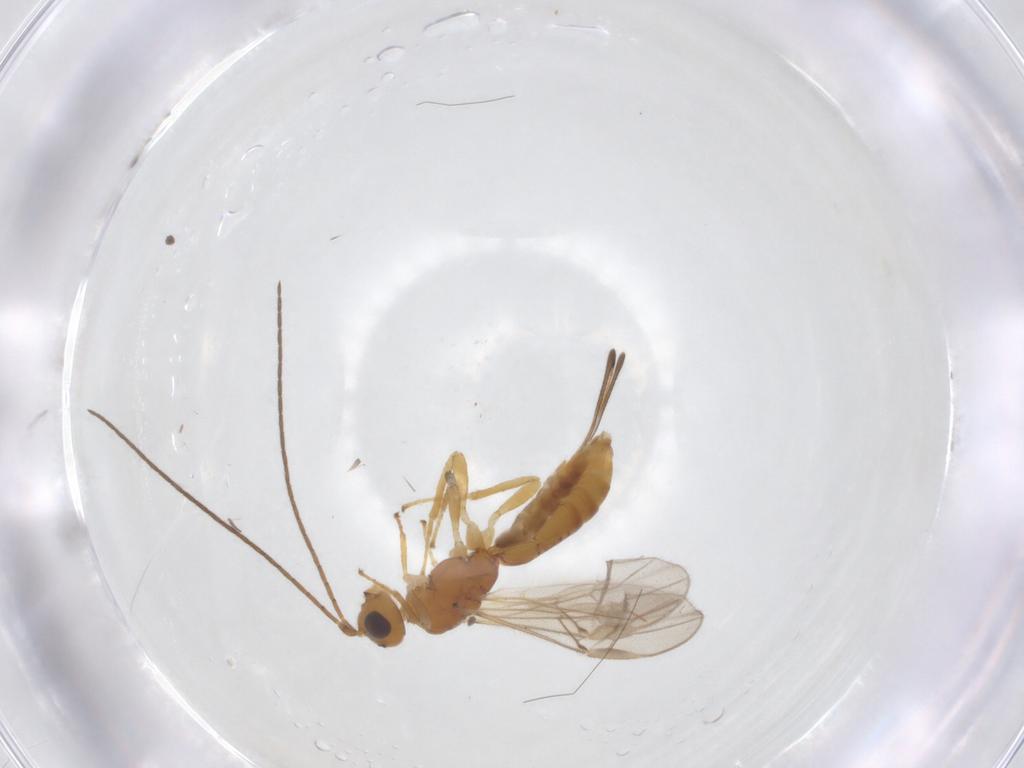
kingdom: Animalia
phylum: Arthropoda
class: Insecta
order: Hymenoptera
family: Braconidae
